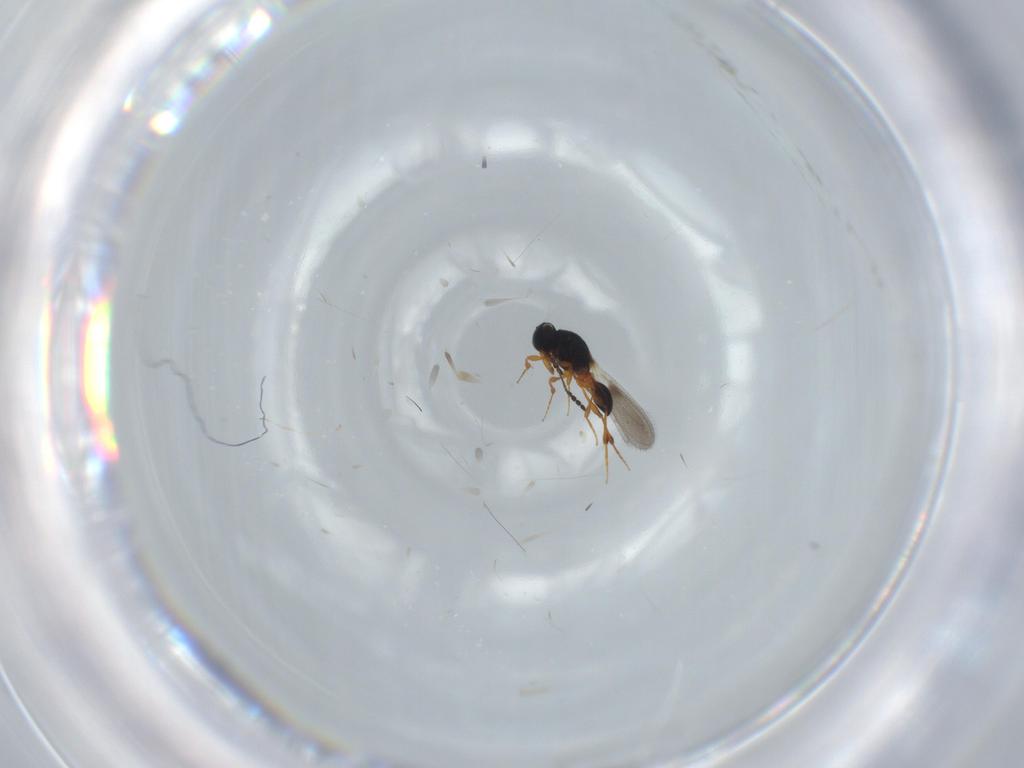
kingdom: Animalia
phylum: Arthropoda
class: Insecta
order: Hymenoptera
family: Platygastridae
